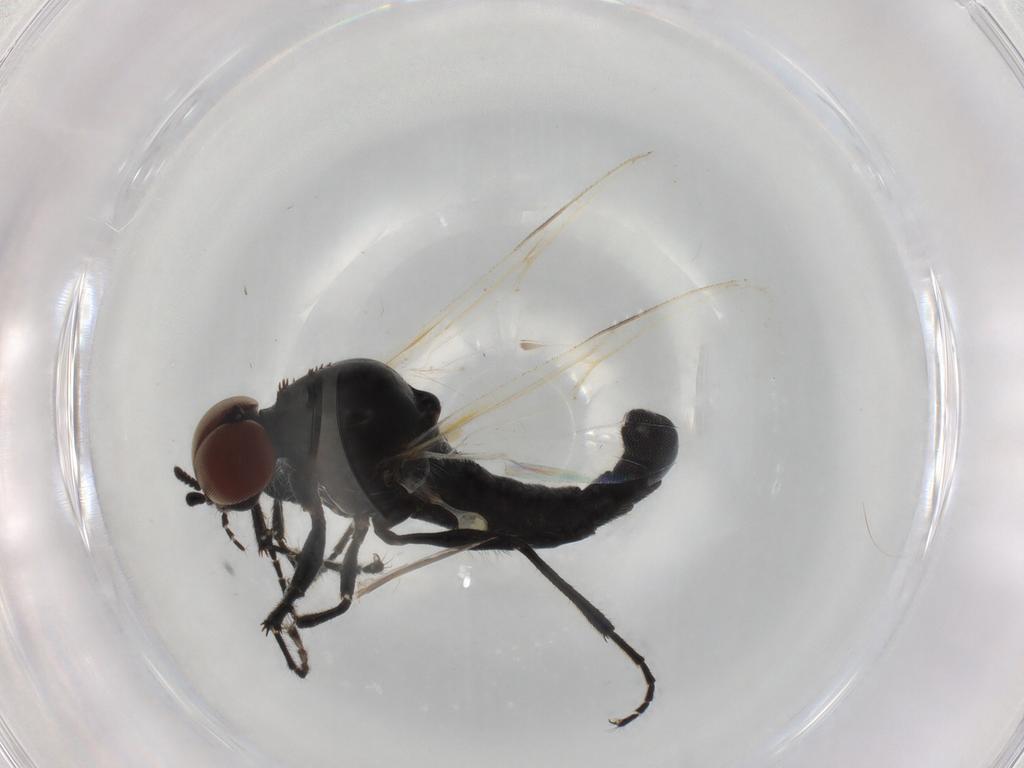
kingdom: Animalia
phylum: Arthropoda
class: Insecta
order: Diptera
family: Bibionidae
